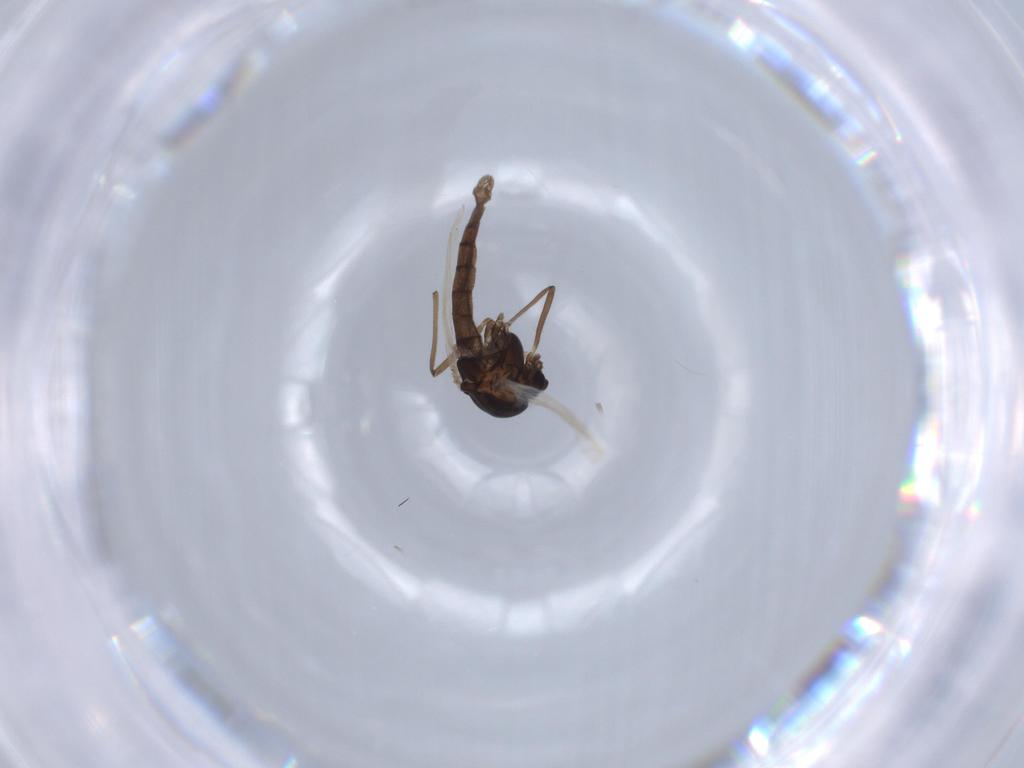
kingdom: Animalia
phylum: Arthropoda
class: Insecta
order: Diptera
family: Chironomidae
